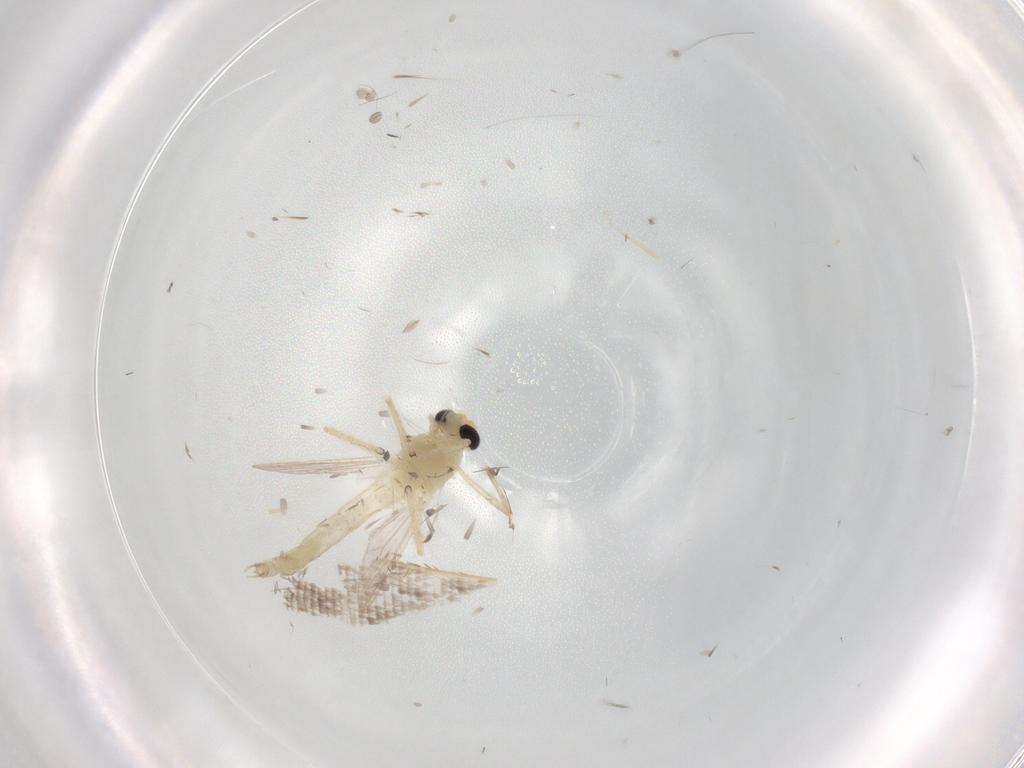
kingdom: Animalia
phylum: Arthropoda
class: Insecta
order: Diptera
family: Chironomidae
